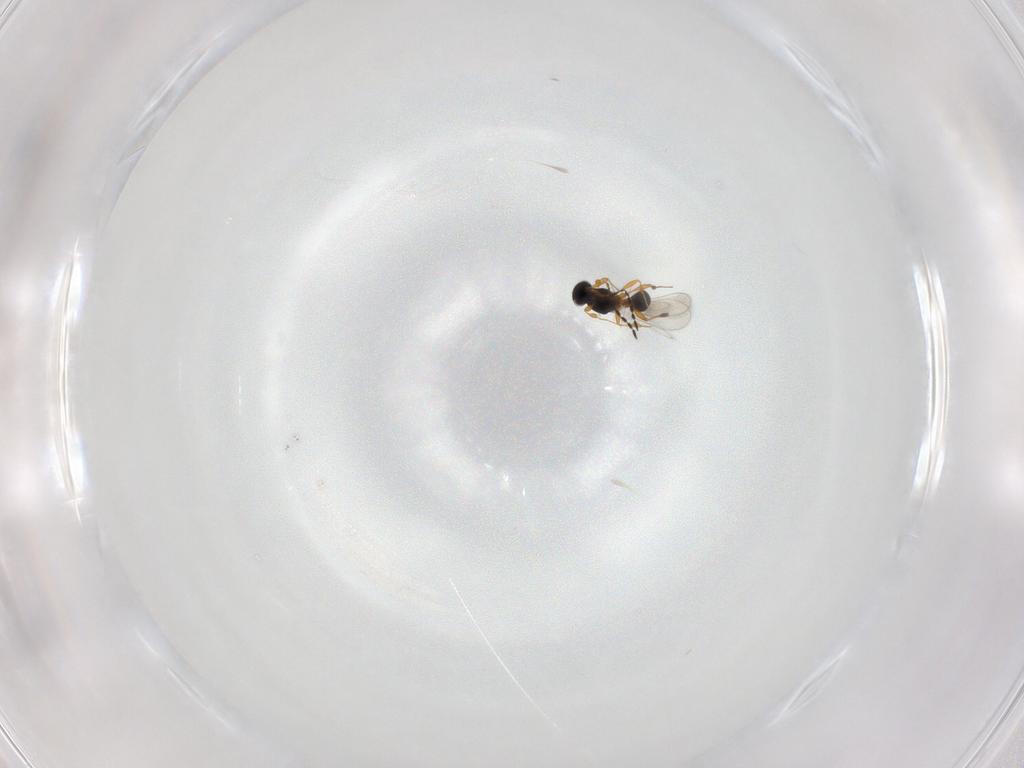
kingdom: Animalia
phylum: Arthropoda
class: Insecta
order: Hymenoptera
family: Platygastridae
